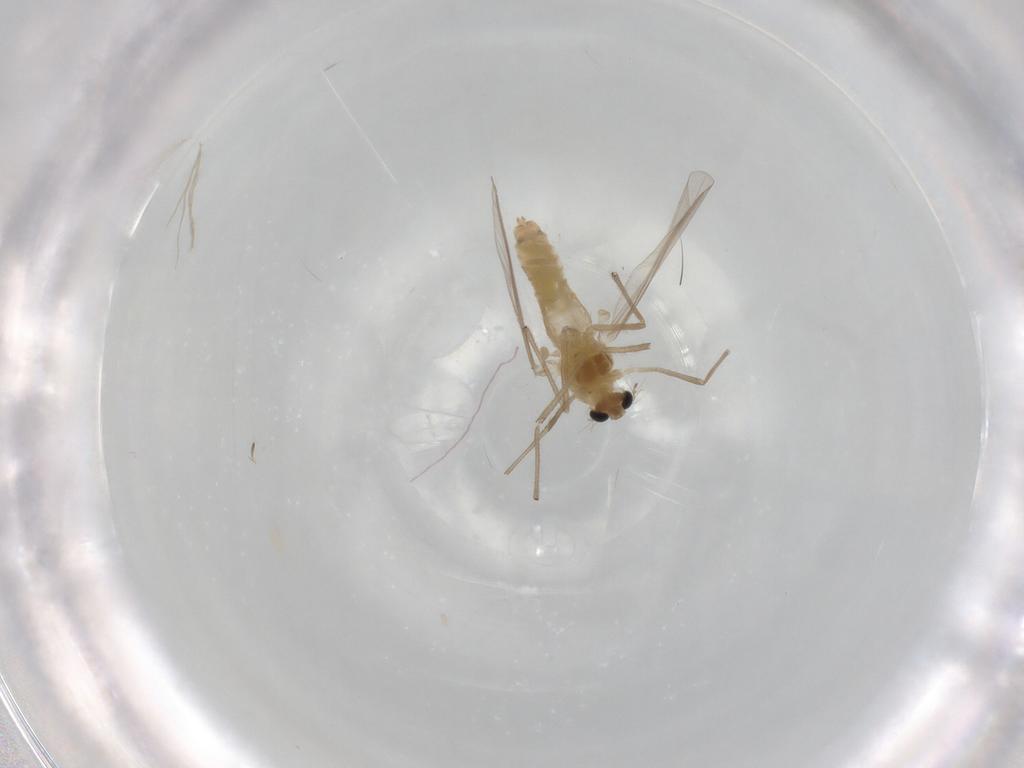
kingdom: Animalia
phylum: Arthropoda
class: Insecta
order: Diptera
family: Chironomidae
